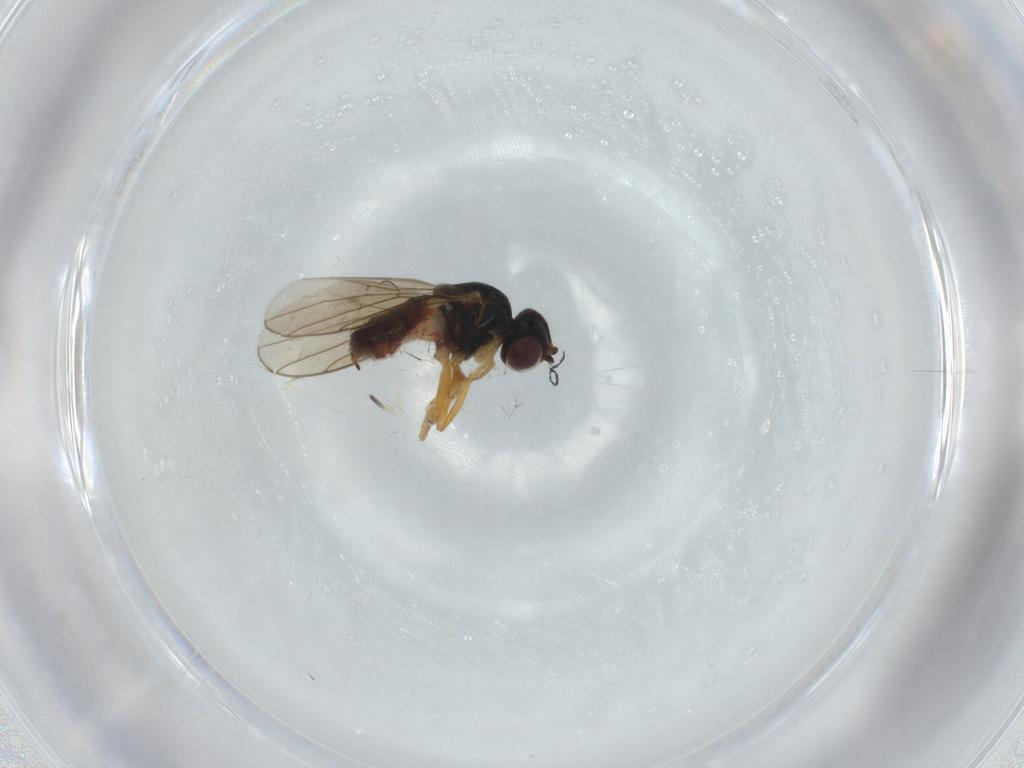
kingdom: Animalia
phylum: Arthropoda
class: Insecta
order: Diptera
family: Chloropidae
